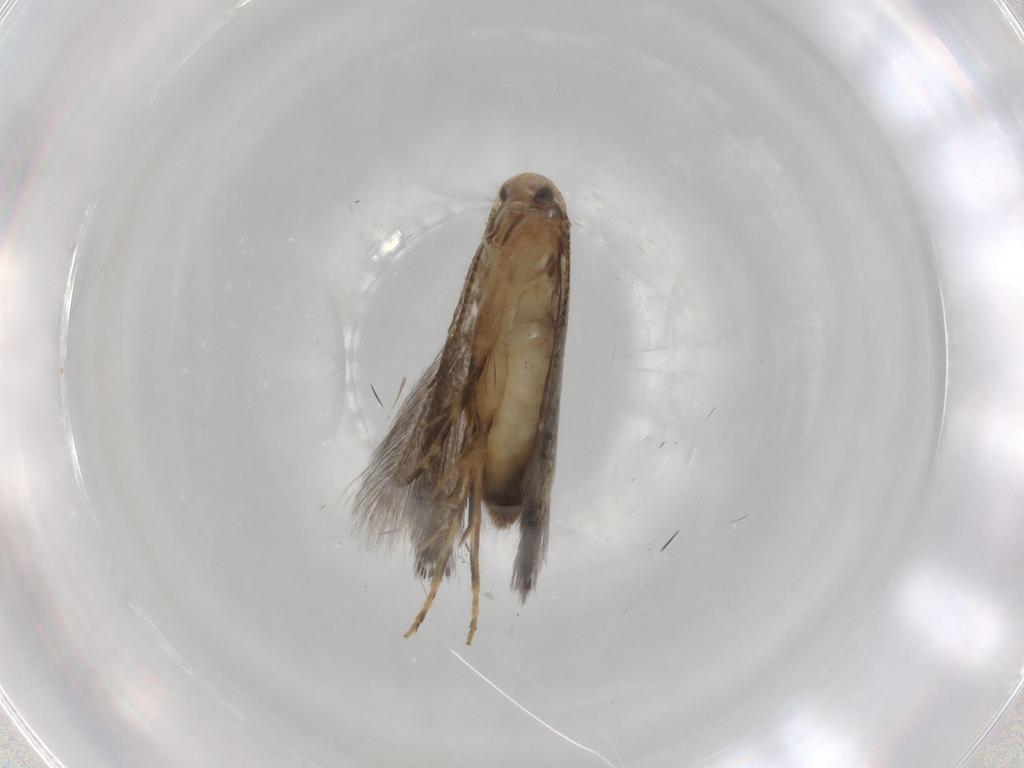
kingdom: Animalia
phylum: Arthropoda
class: Insecta
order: Lepidoptera
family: Elachistidae
